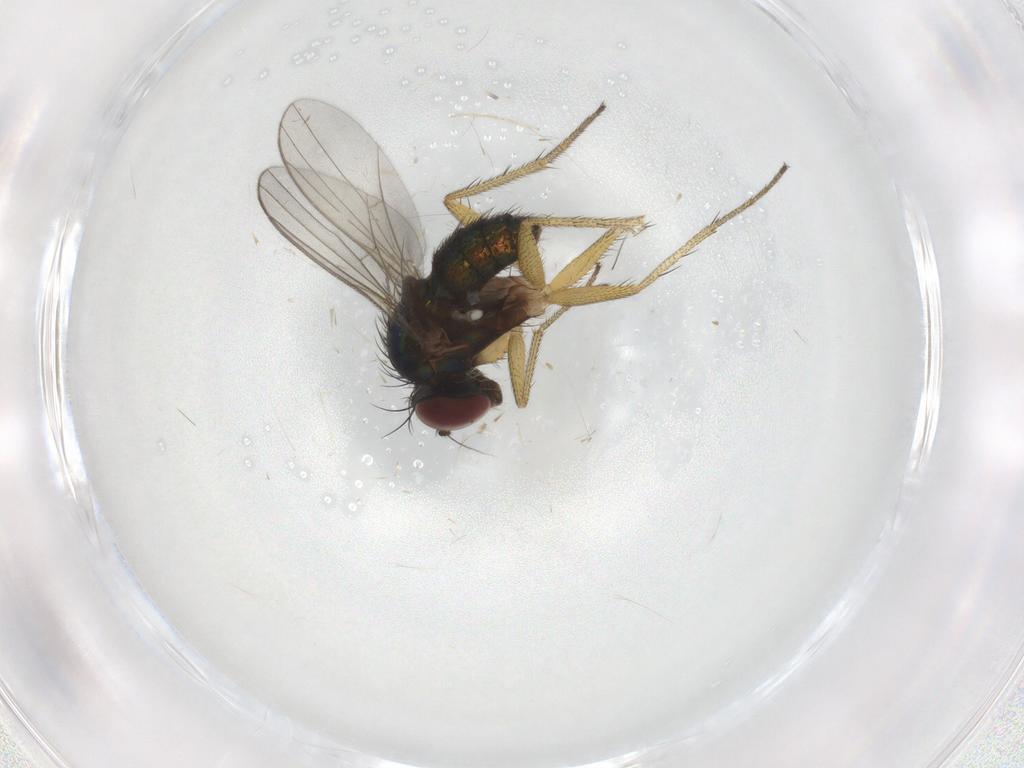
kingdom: Animalia
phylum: Arthropoda
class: Insecta
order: Diptera
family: Sciaridae
